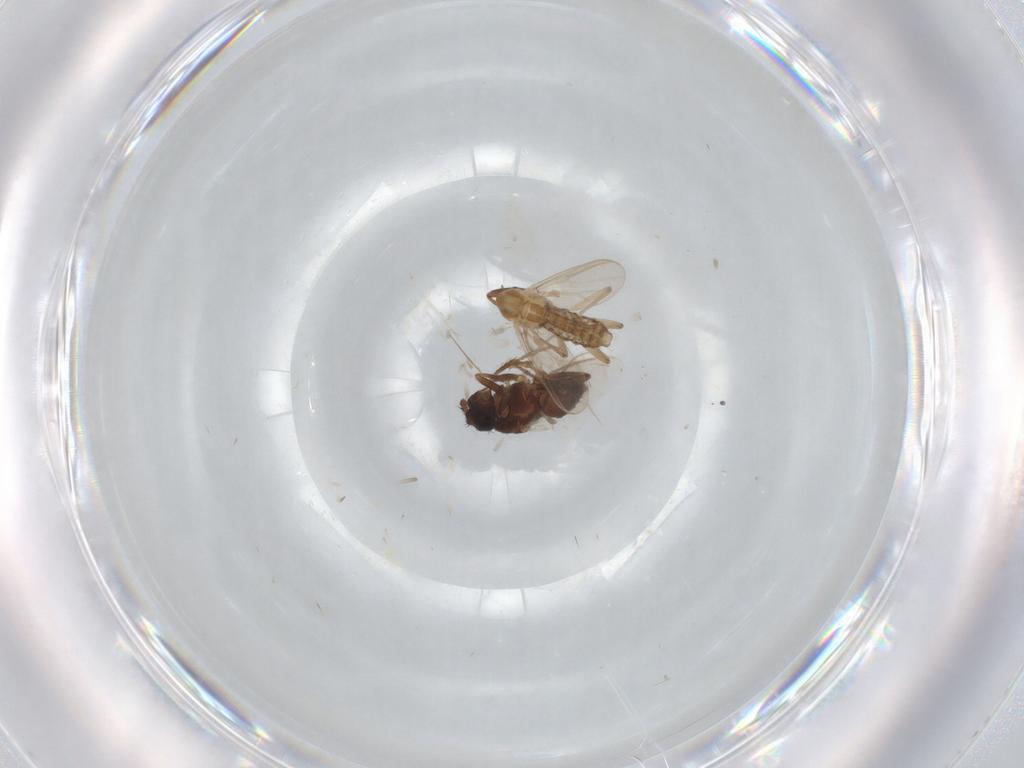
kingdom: Animalia
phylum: Arthropoda
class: Insecta
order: Diptera
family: Chironomidae
